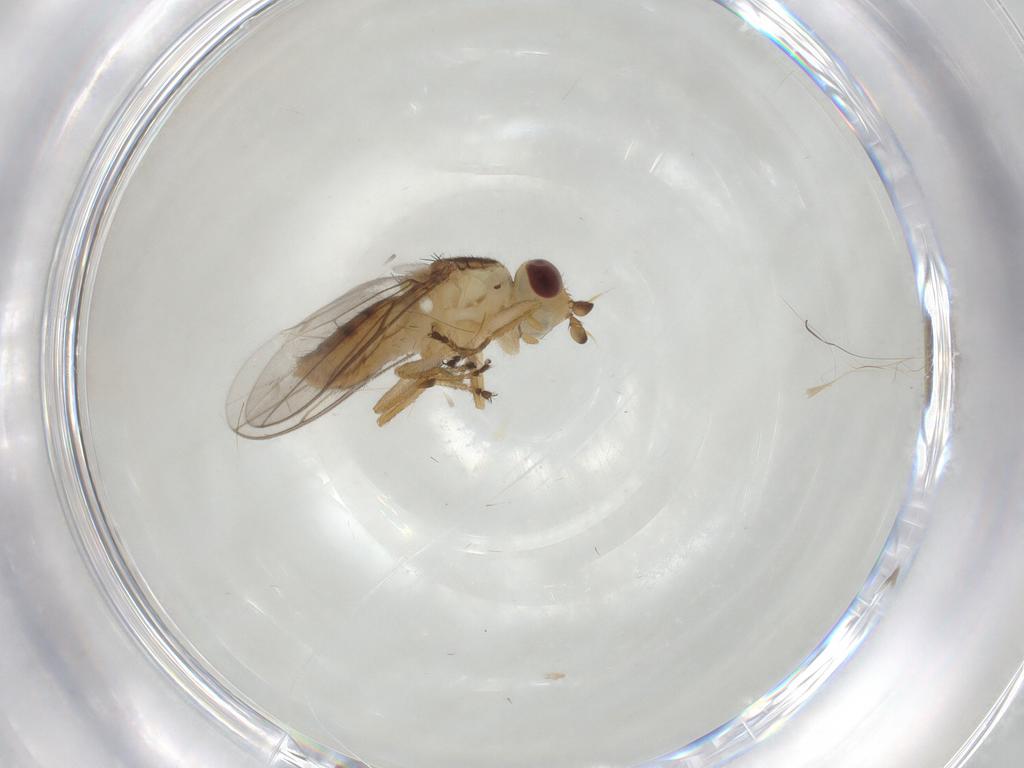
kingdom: Animalia
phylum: Arthropoda
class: Insecta
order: Diptera
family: Chloropidae
